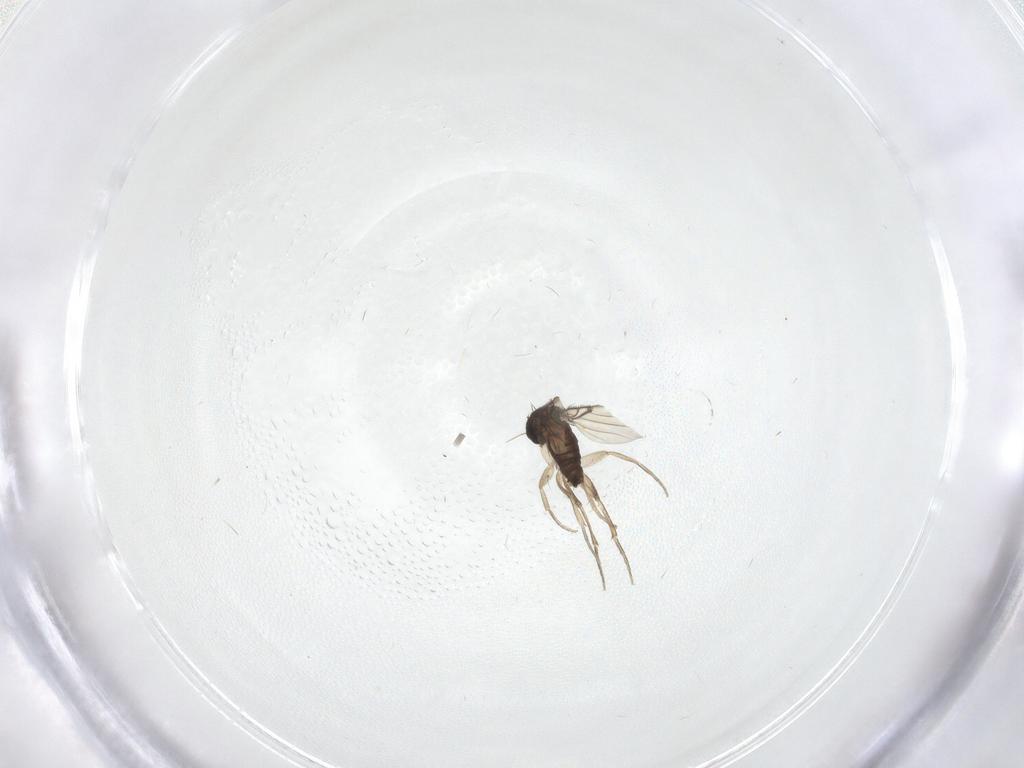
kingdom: Animalia
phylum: Arthropoda
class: Insecta
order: Diptera
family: Phoridae
